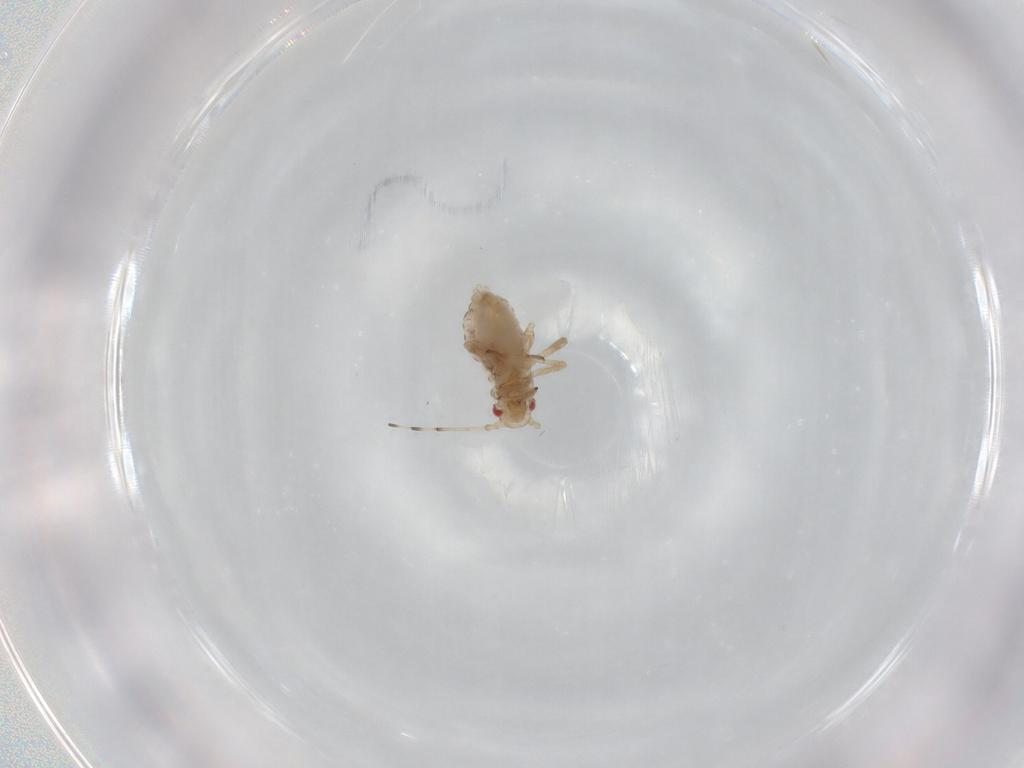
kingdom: Animalia
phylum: Arthropoda
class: Insecta
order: Hemiptera
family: Aphididae
